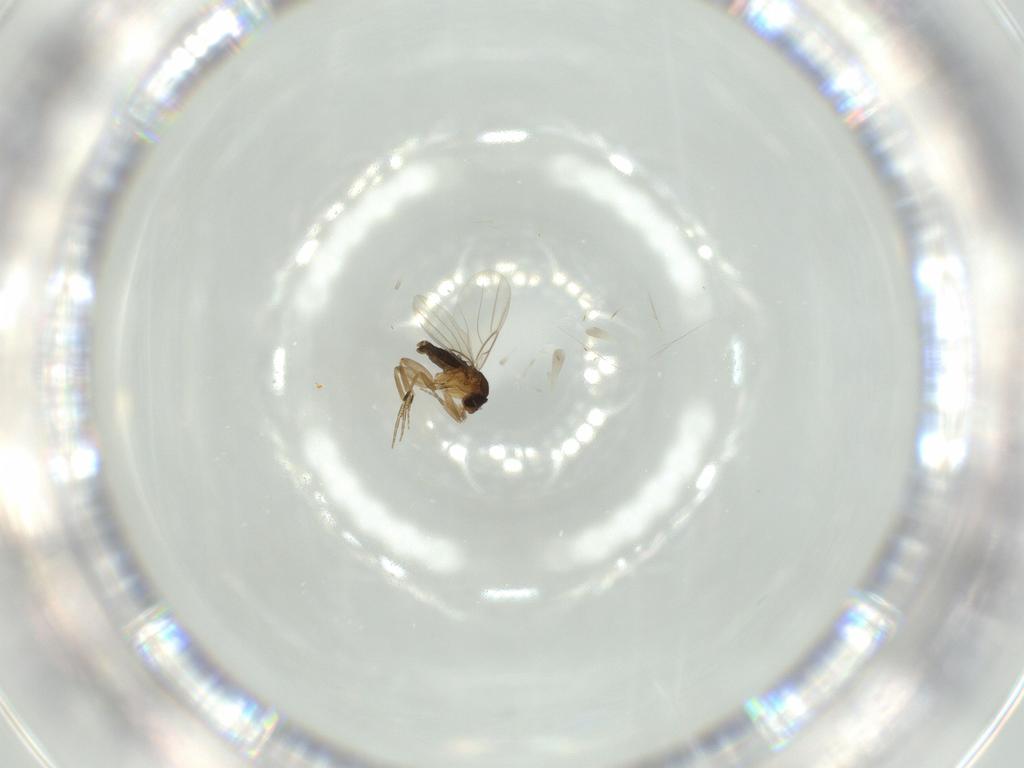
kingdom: Animalia
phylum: Arthropoda
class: Insecta
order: Diptera
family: Phoridae
